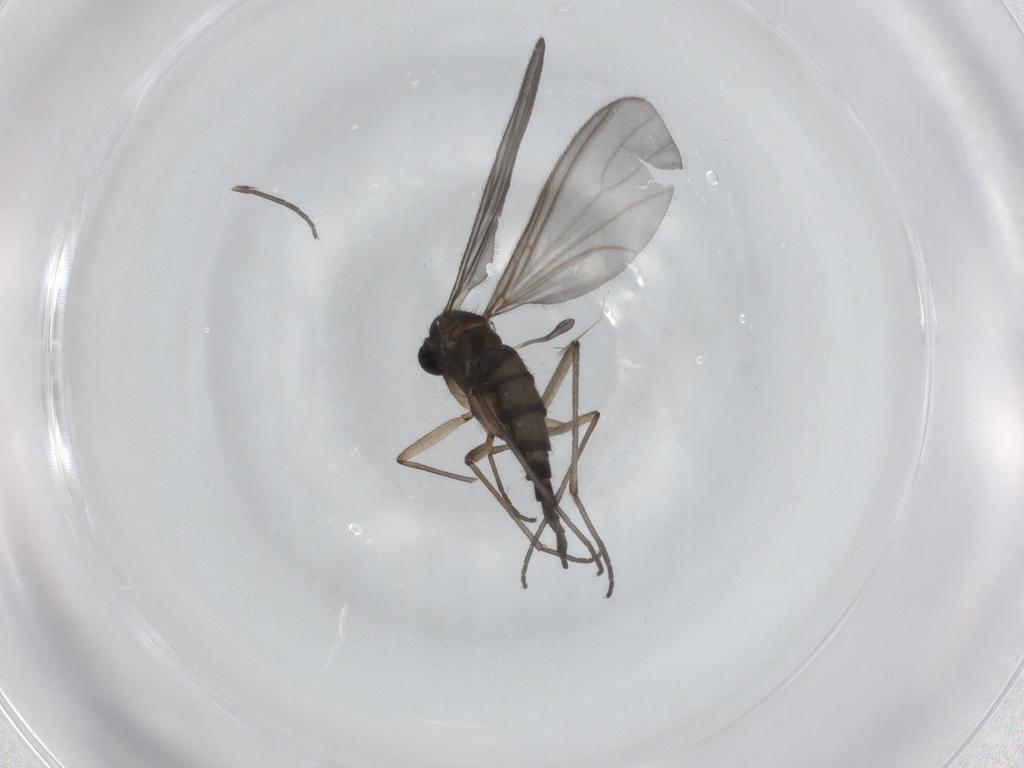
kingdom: Animalia
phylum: Arthropoda
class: Insecta
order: Diptera
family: Sciaridae
